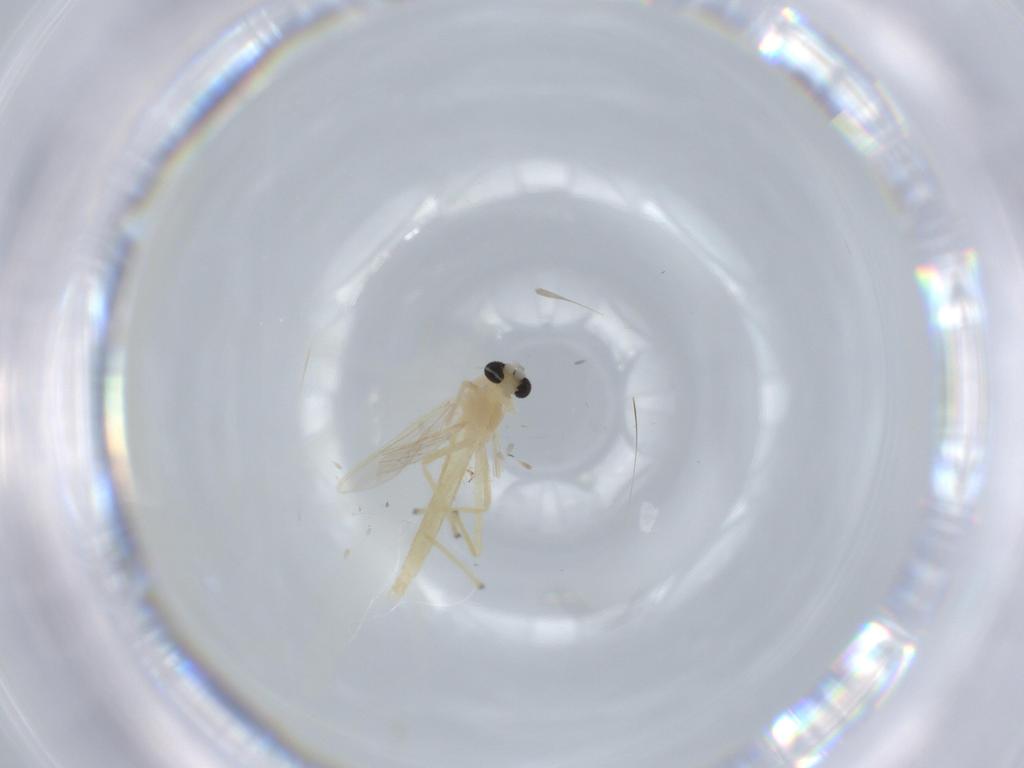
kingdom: Animalia
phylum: Arthropoda
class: Insecta
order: Diptera
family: Chironomidae
